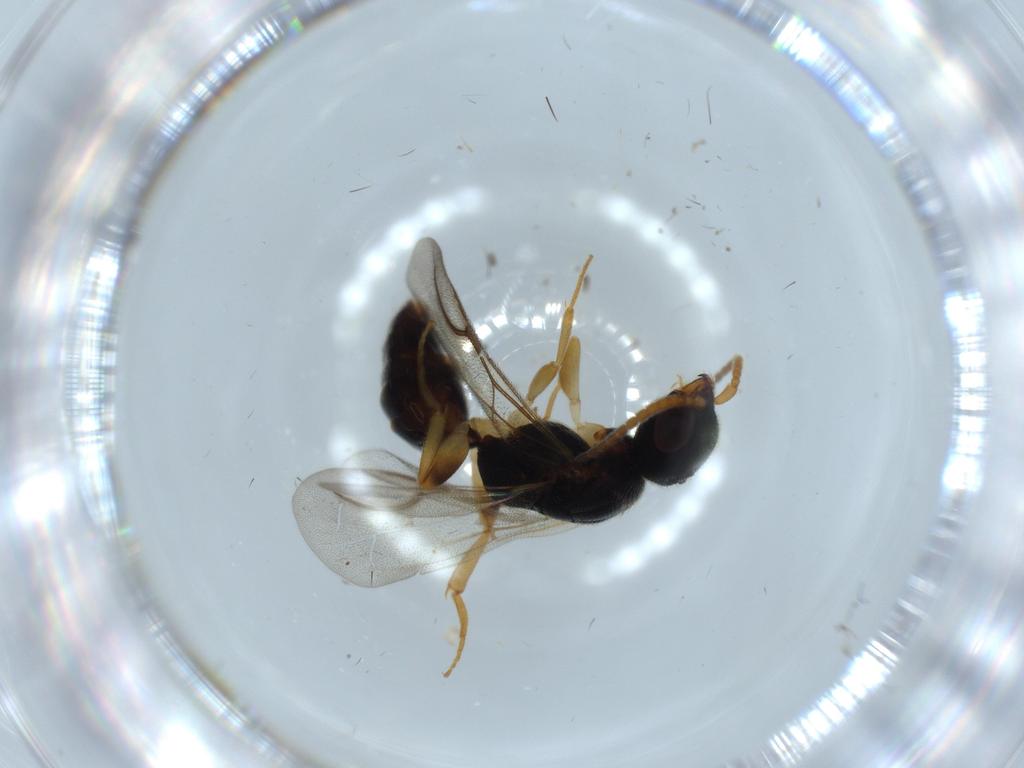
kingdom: Animalia
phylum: Arthropoda
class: Insecta
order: Hymenoptera
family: Bethylidae
